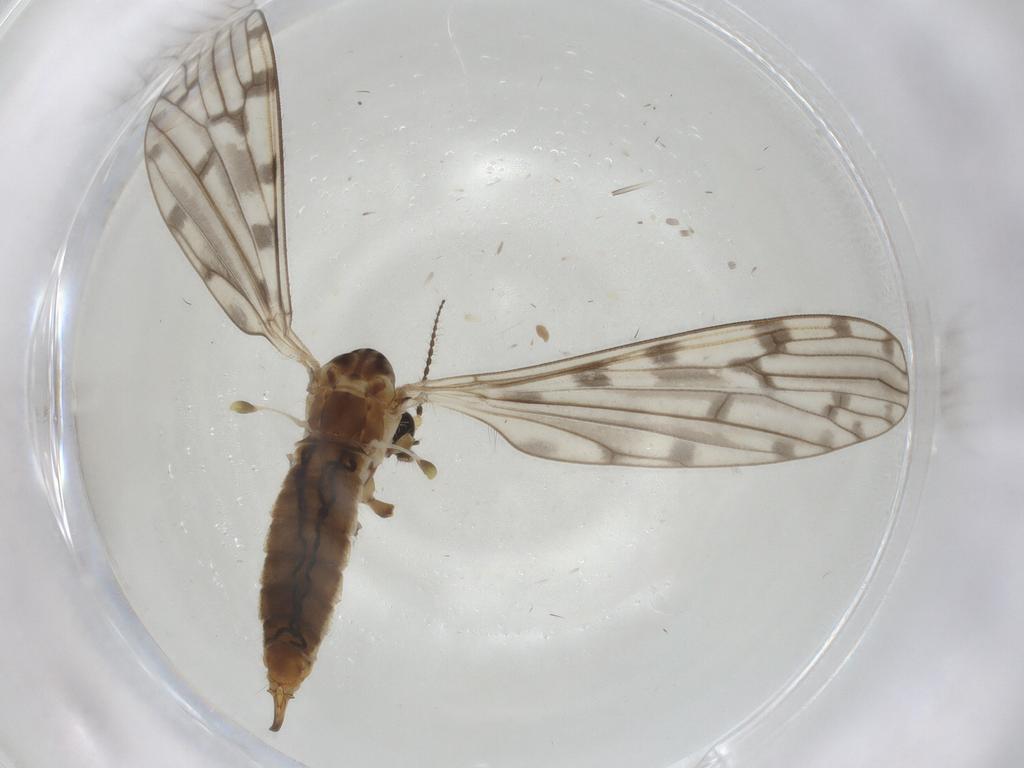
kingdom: Animalia
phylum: Arthropoda
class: Insecta
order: Diptera
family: Limoniidae
